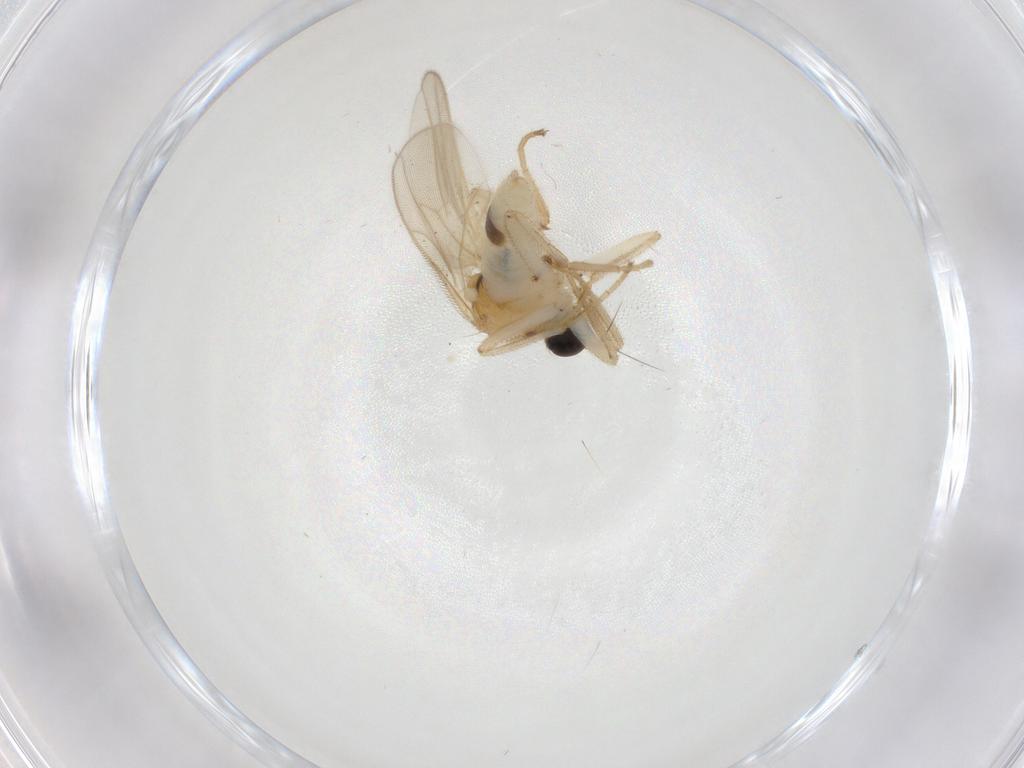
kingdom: Animalia
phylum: Arthropoda
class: Insecta
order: Diptera
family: Hybotidae
